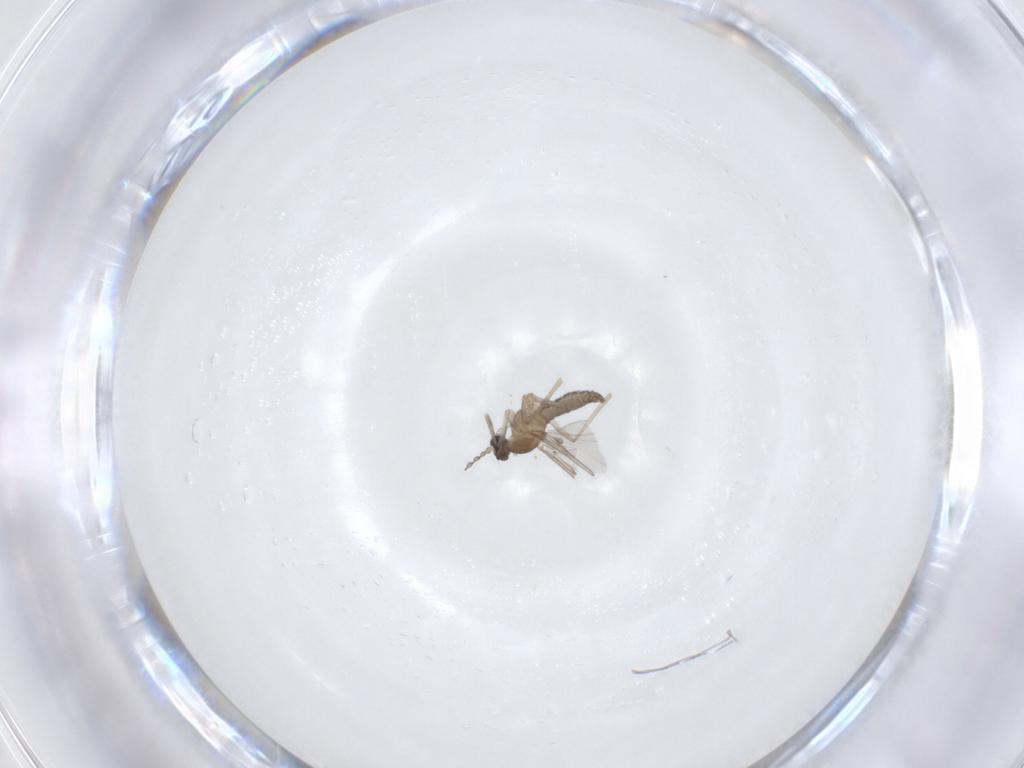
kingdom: Animalia
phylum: Arthropoda
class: Insecta
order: Diptera
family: Cecidomyiidae
